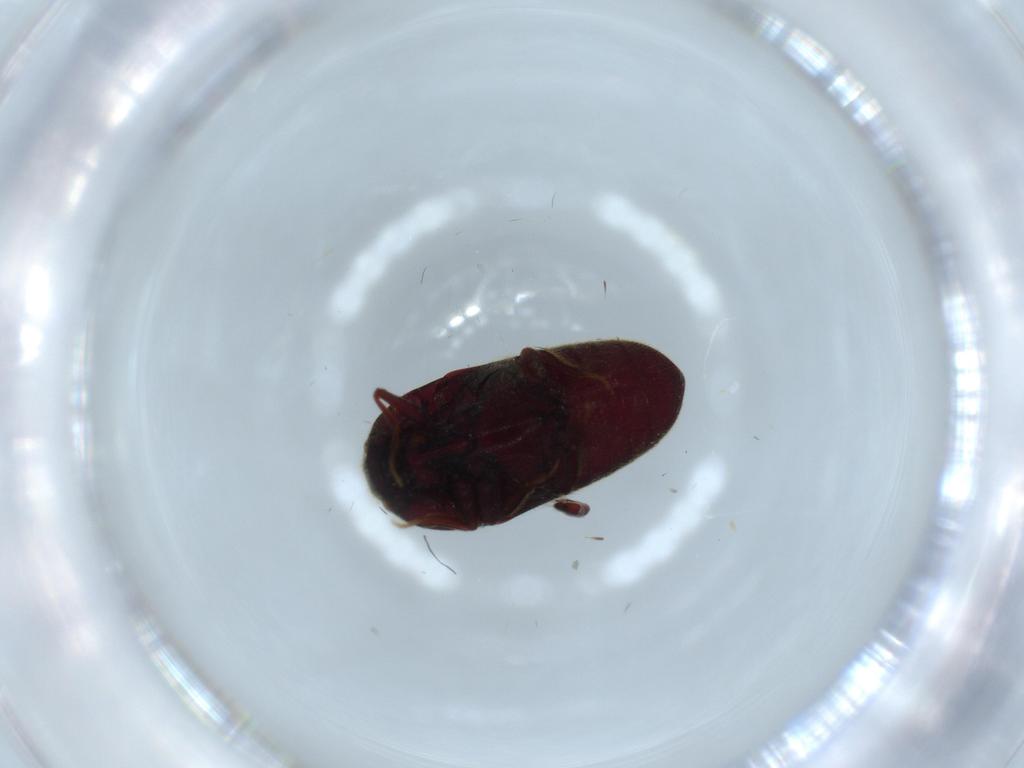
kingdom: Animalia
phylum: Arthropoda
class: Insecta
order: Coleoptera
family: Throscidae
